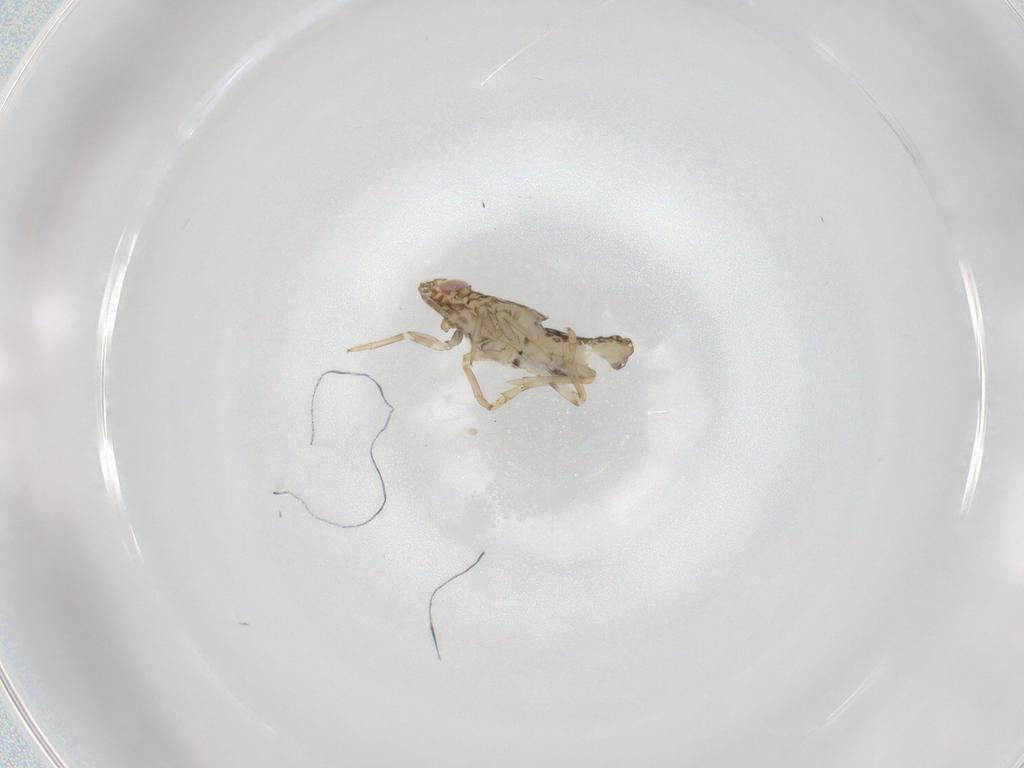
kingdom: Animalia
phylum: Arthropoda
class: Insecta
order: Hemiptera
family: Delphacidae
